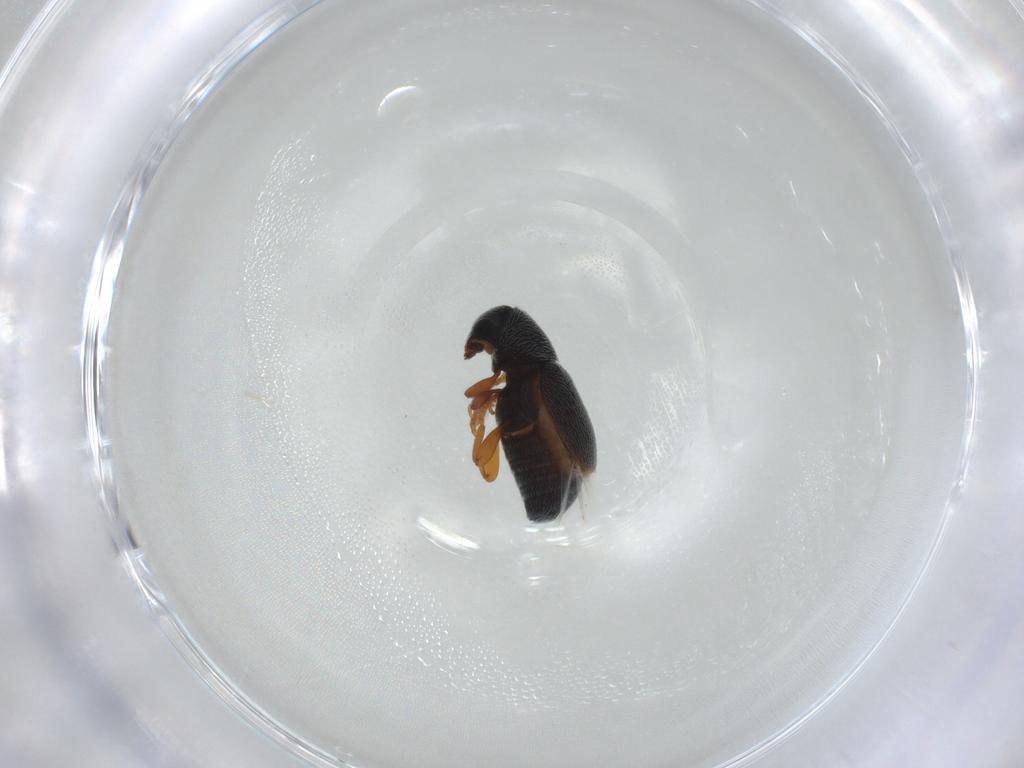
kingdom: Animalia
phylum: Arthropoda
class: Insecta
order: Coleoptera
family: Anthribidae
